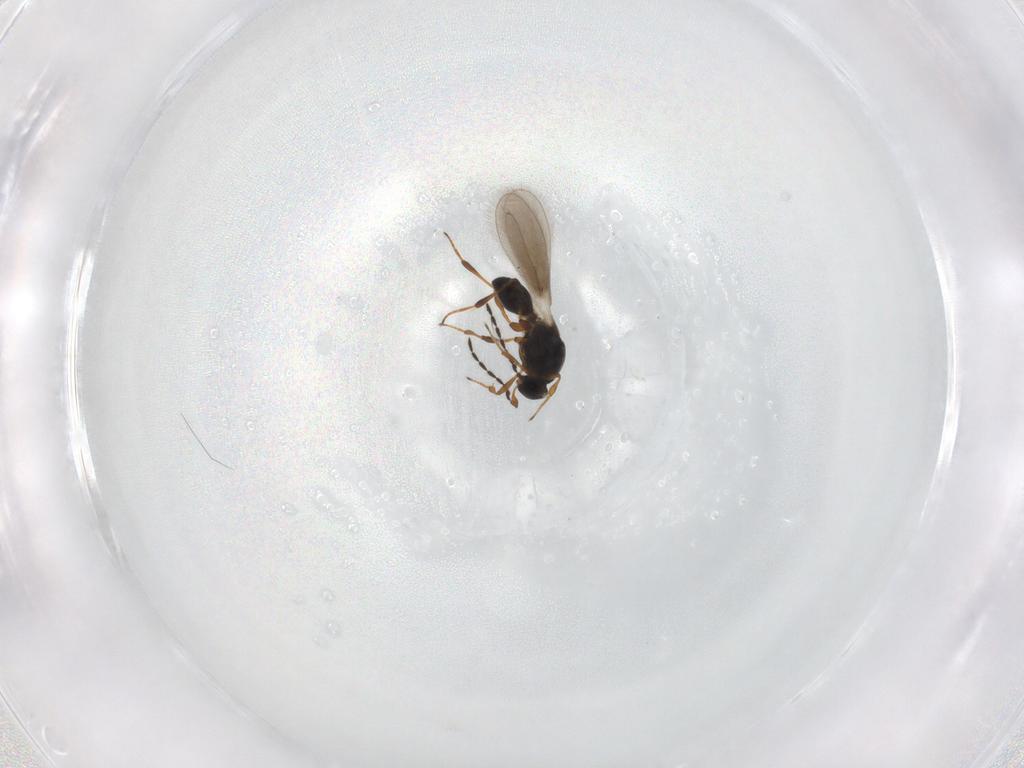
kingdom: Animalia
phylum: Arthropoda
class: Insecta
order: Hymenoptera
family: Platygastridae
